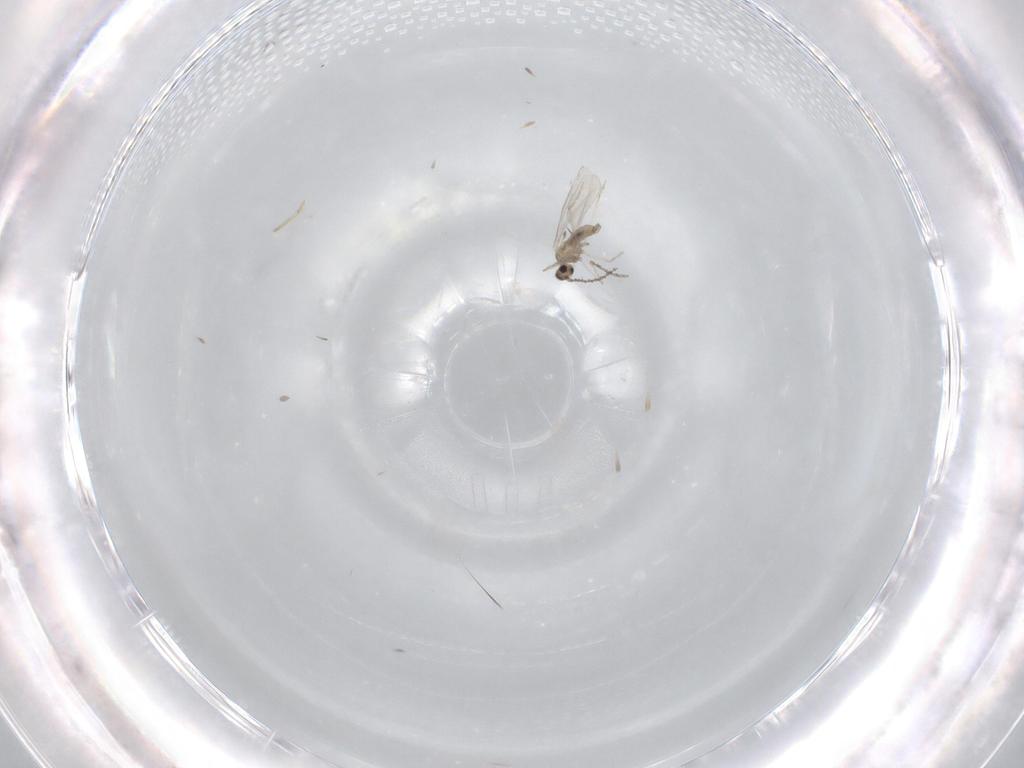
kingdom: Animalia
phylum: Arthropoda
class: Insecta
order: Diptera
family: Cecidomyiidae
